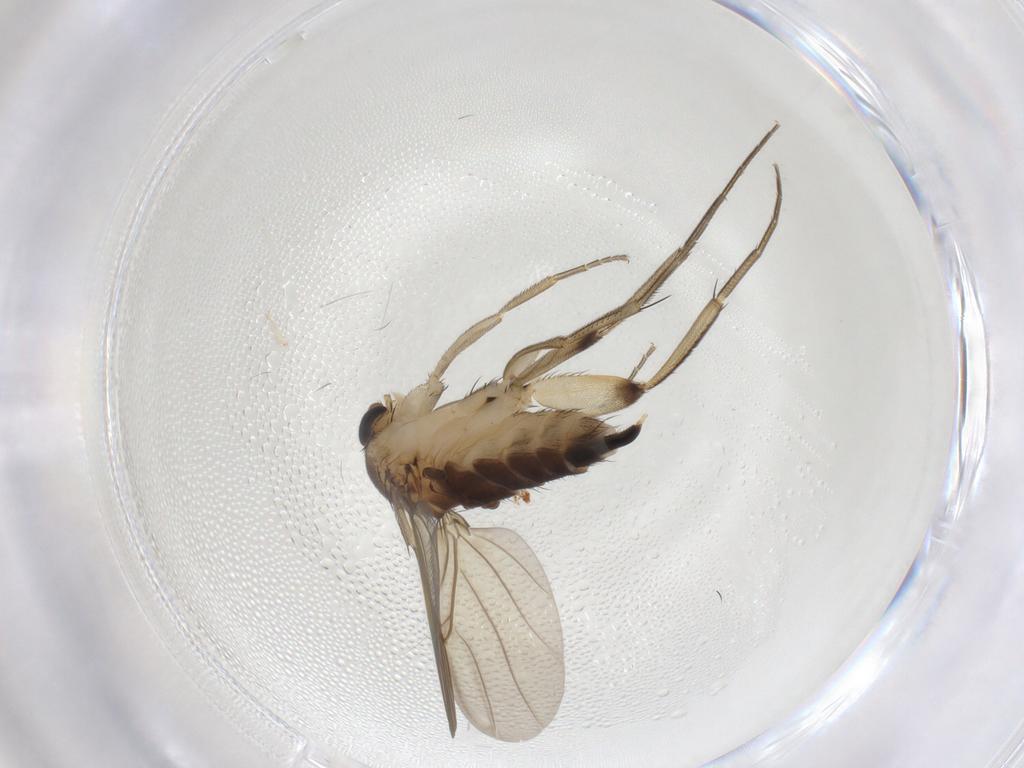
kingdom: Animalia
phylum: Arthropoda
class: Insecta
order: Diptera
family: Phoridae
